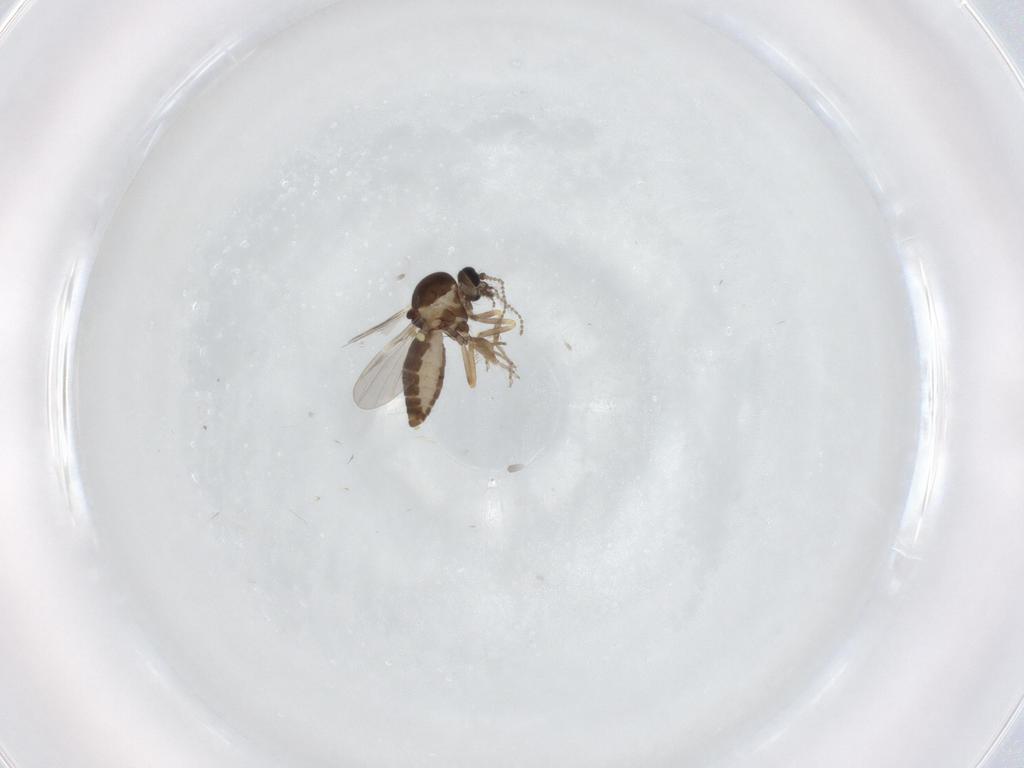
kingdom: Animalia
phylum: Arthropoda
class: Insecta
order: Diptera
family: Ceratopogonidae
